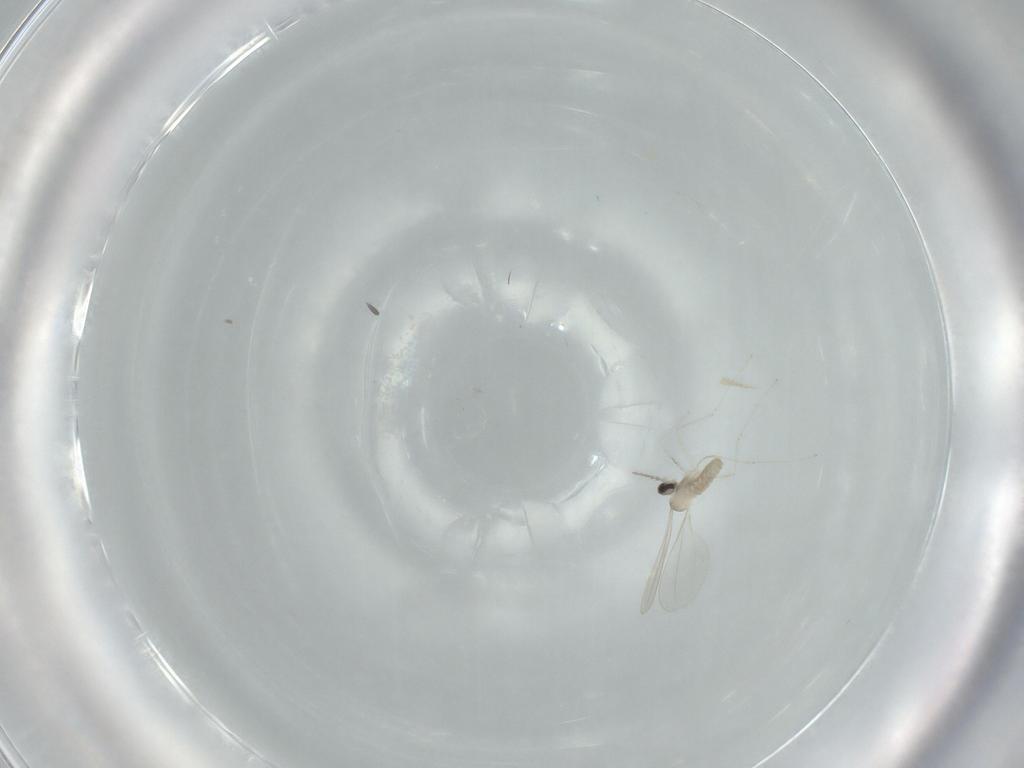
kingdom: Animalia
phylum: Arthropoda
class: Insecta
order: Diptera
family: Cecidomyiidae
